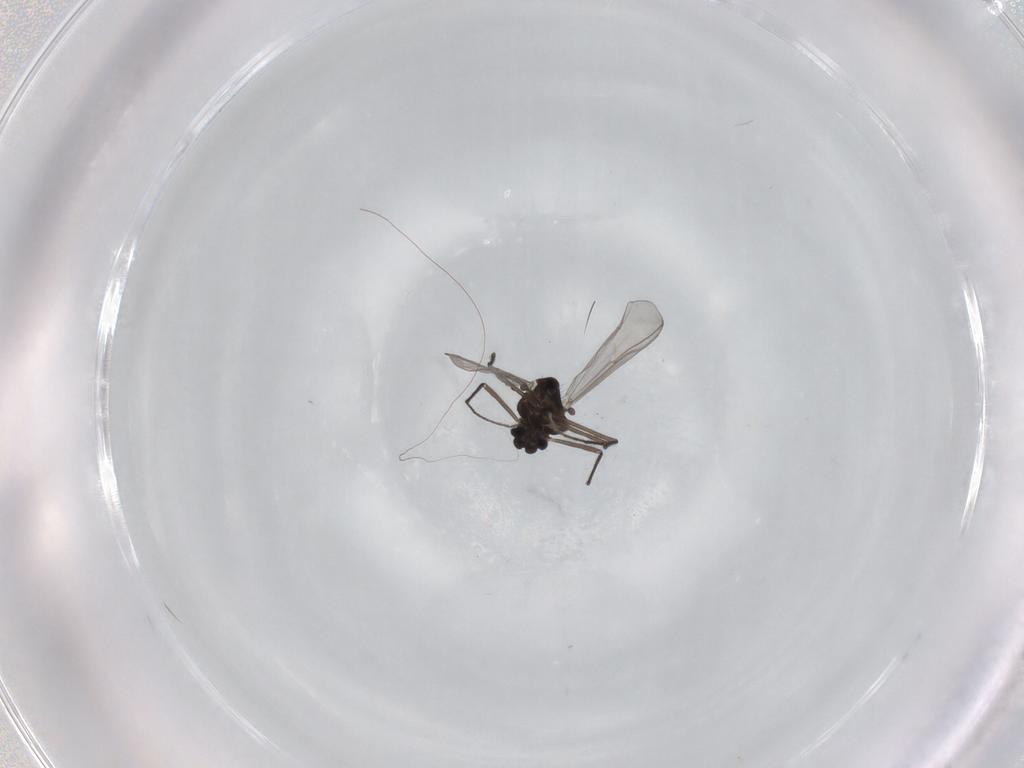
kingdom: Animalia
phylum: Arthropoda
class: Insecta
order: Diptera
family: Chironomidae
